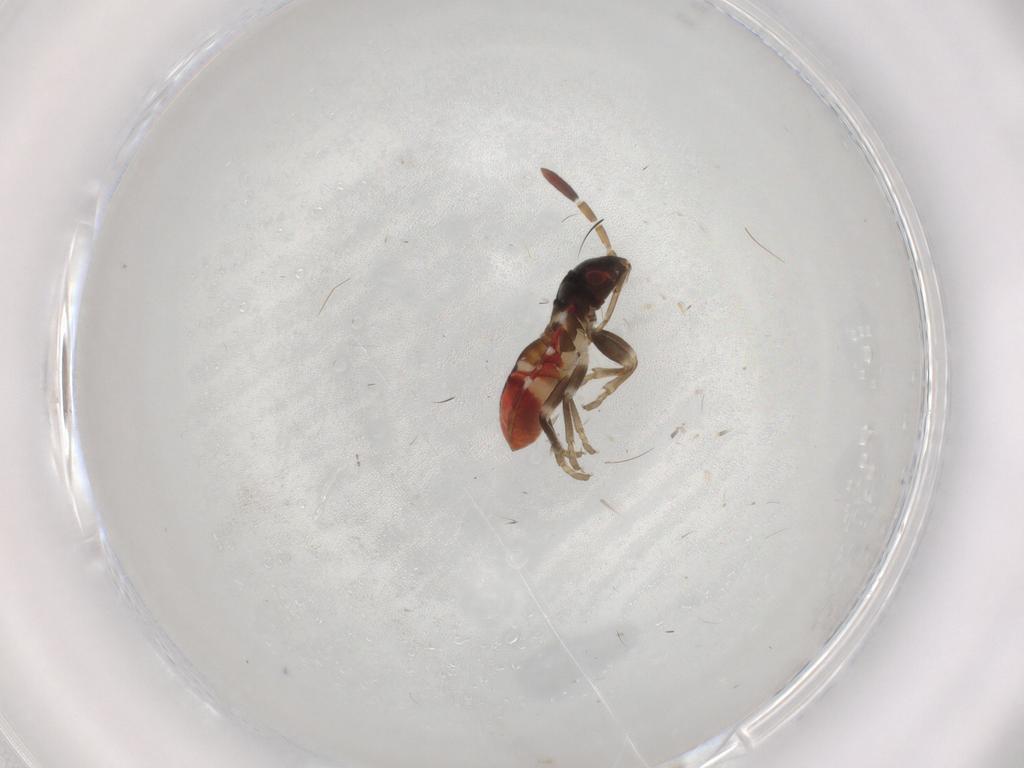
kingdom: Animalia
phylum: Arthropoda
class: Insecta
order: Hemiptera
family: Rhyparochromidae
